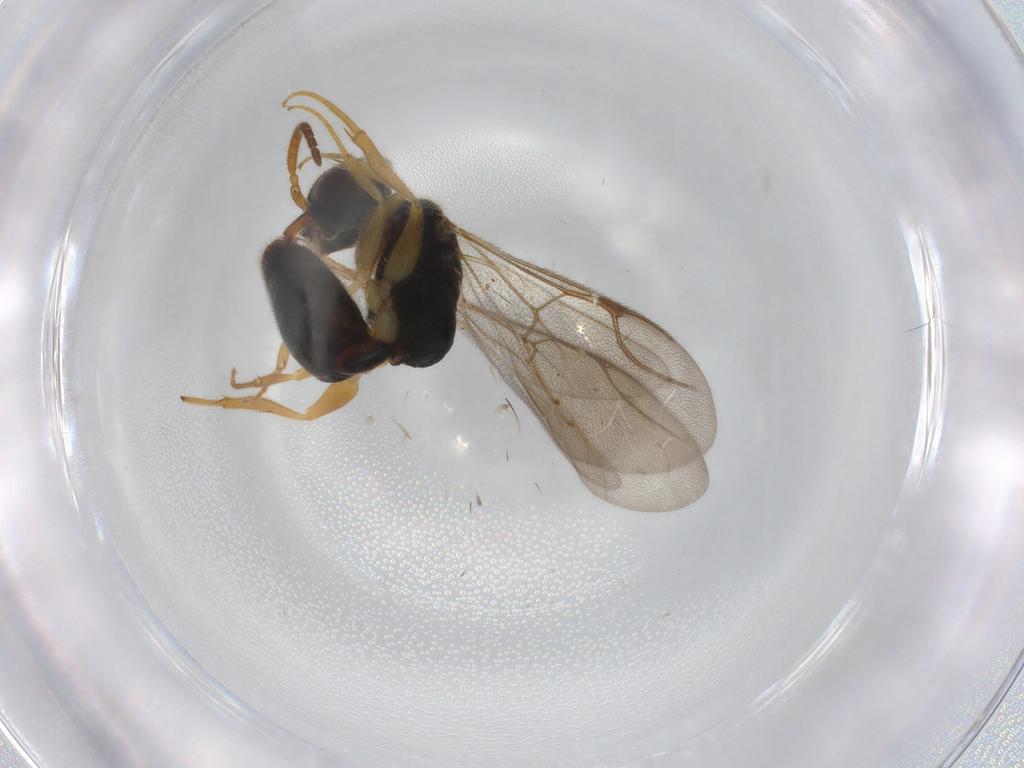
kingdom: Animalia
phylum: Arthropoda
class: Insecta
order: Hymenoptera
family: Bethylidae
